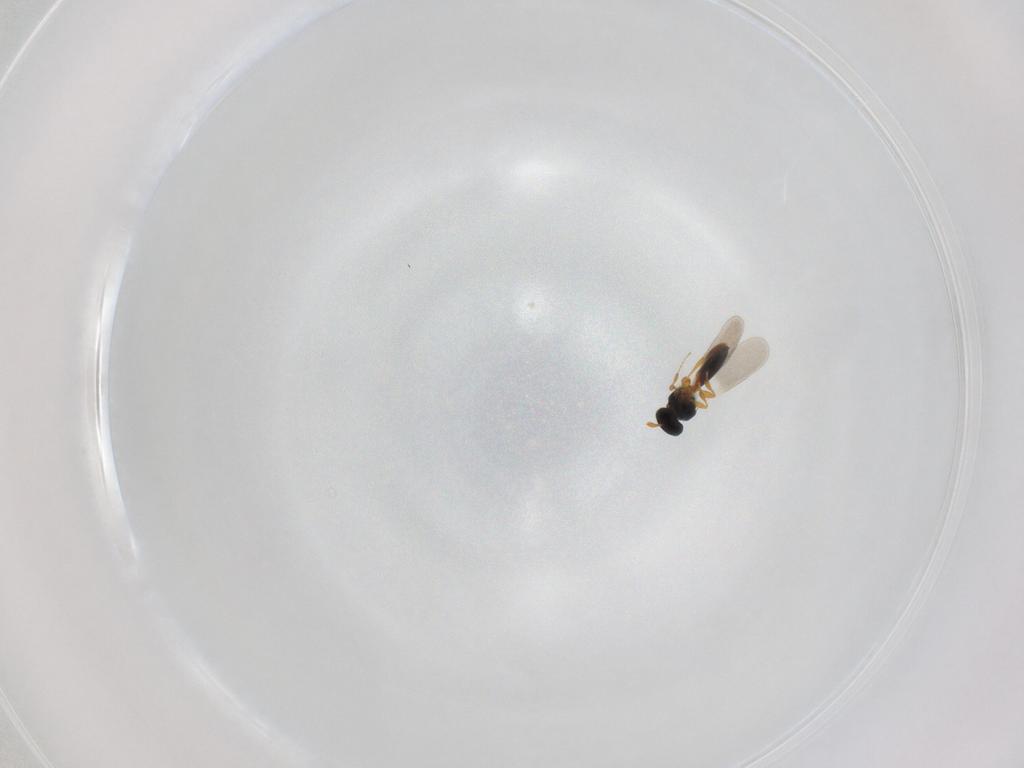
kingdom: Animalia
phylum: Arthropoda
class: Insecta
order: Hymenoptera
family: Platygastridae
